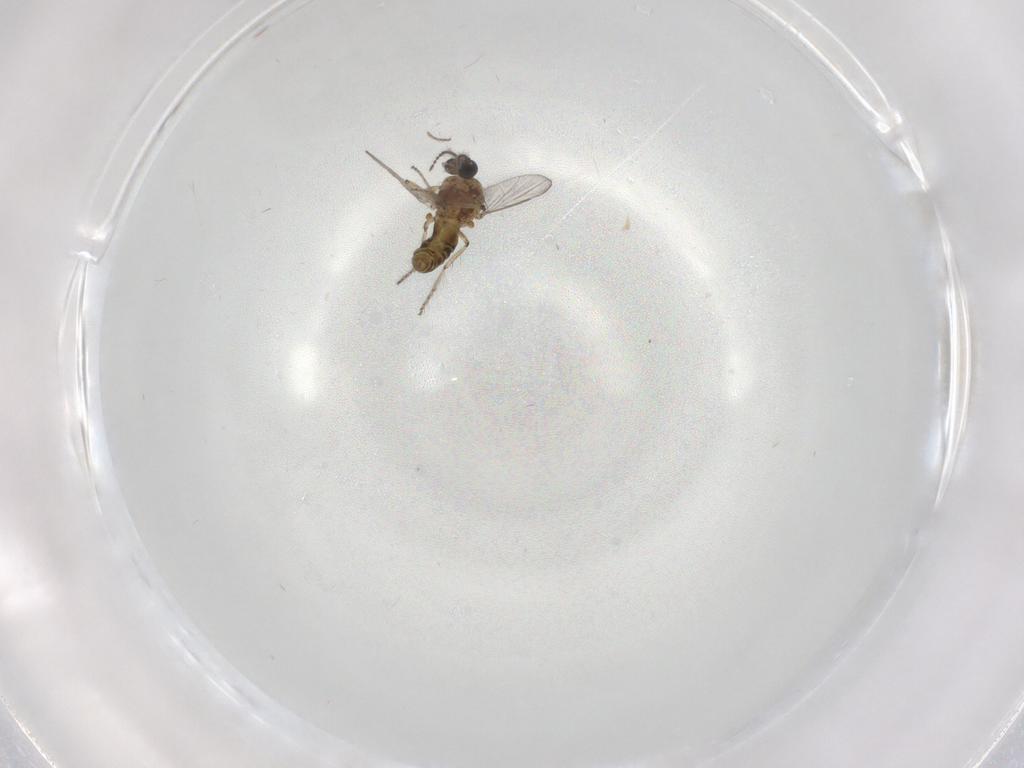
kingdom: Animalia
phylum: Arthropoda
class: Insecta
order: Diptera
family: Ceratopogonidae
